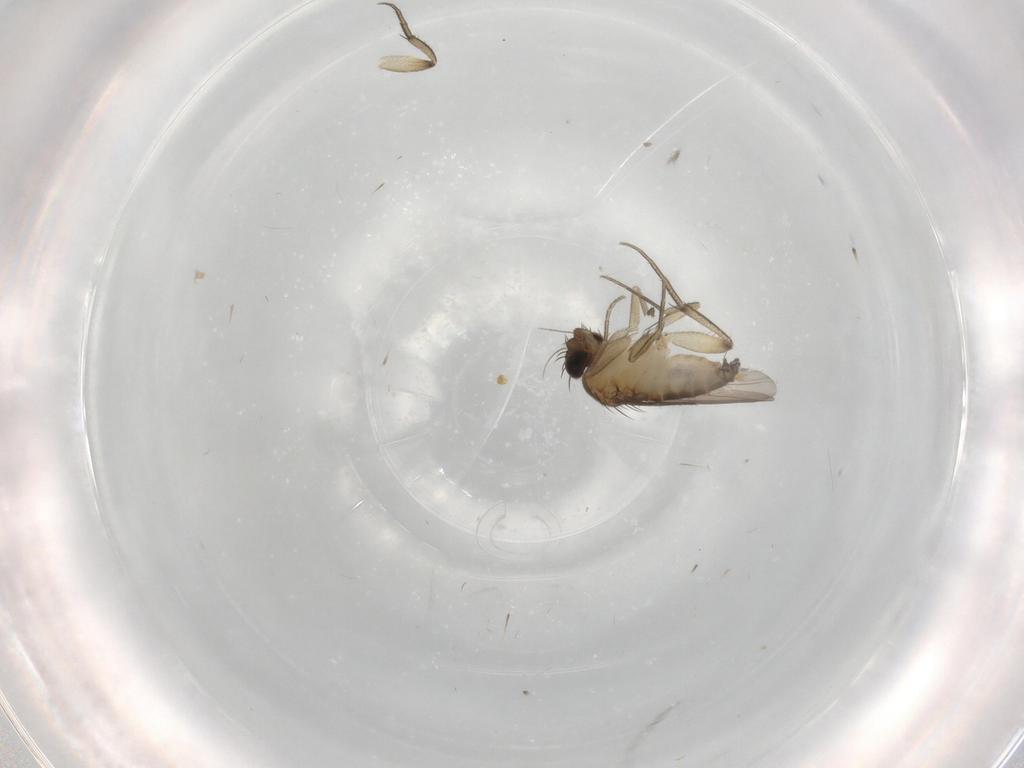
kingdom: Animalia
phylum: Arthropoda
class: Insecta
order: Diptera
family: Phoridae
